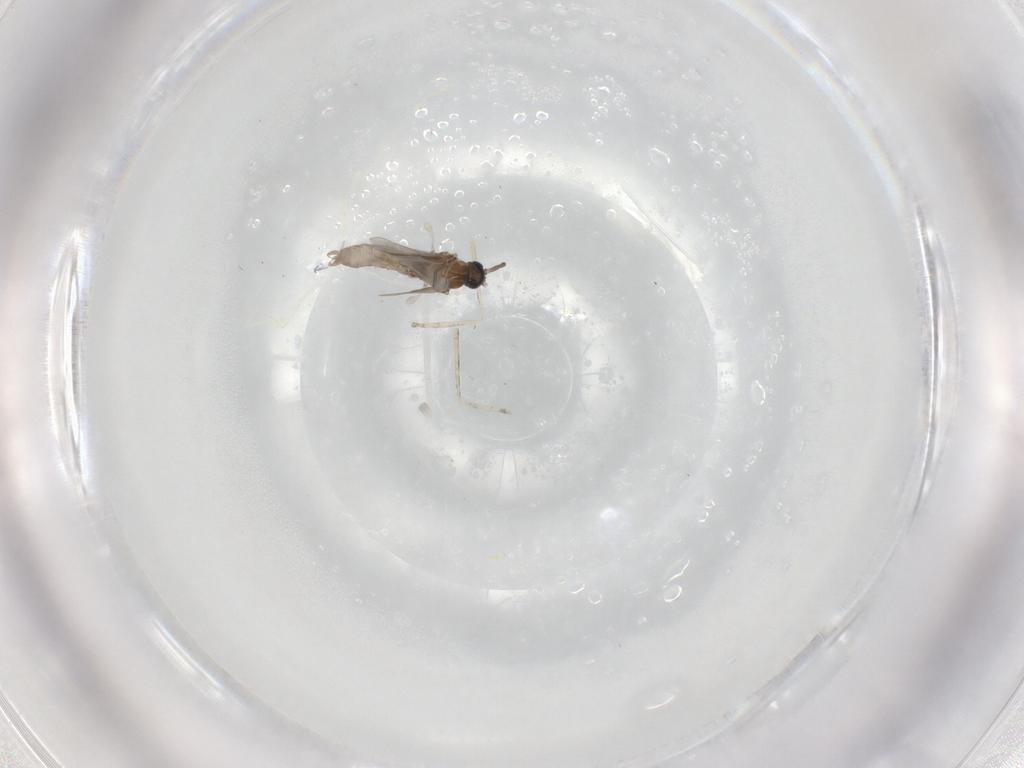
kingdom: Animalia
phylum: Arthropoda
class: Insecta
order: Diptera
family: Cecidomyiidae
